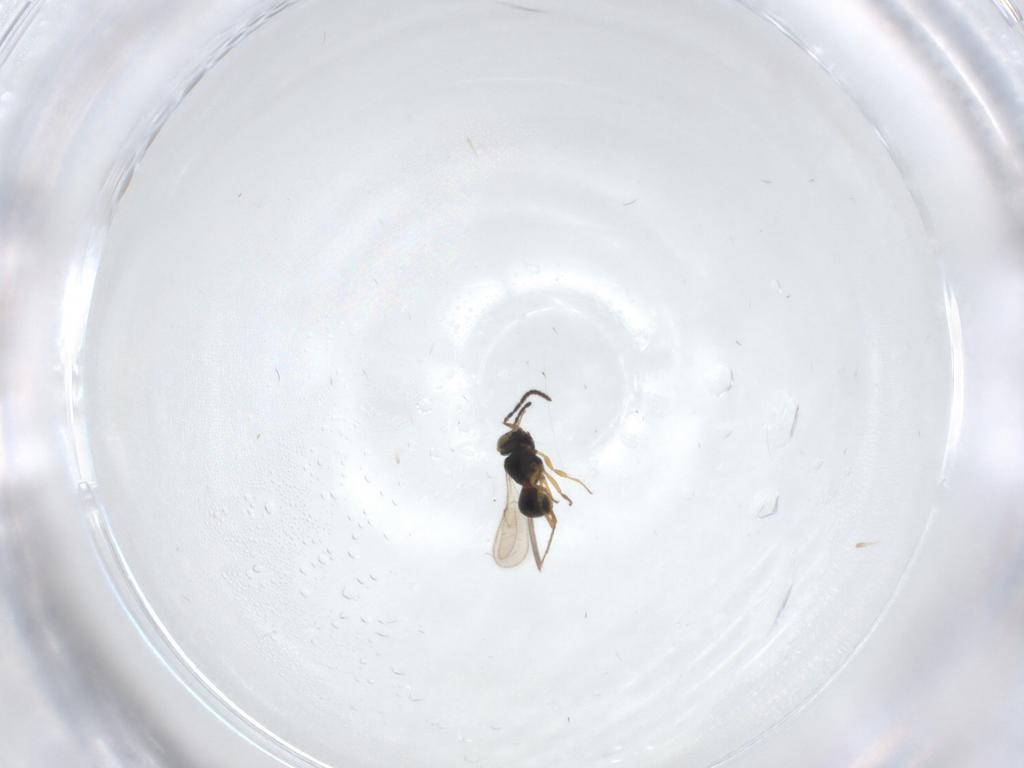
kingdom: Animalia
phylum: Arthropoda
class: Insecta
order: Hymenoptera
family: Scelionidae
